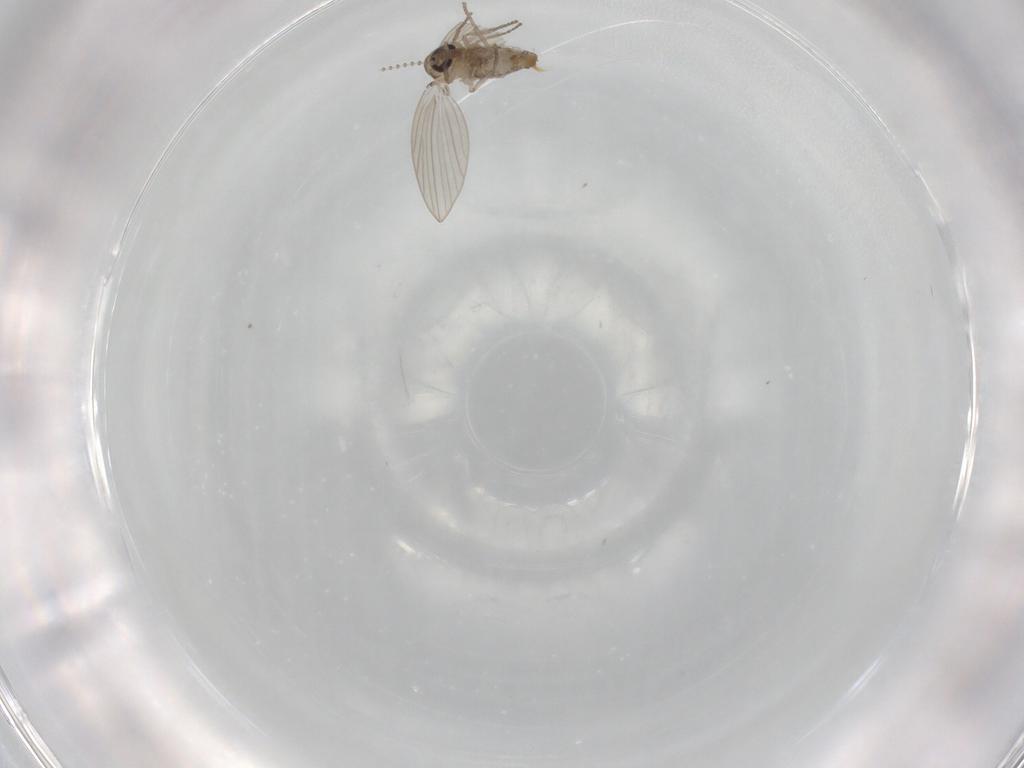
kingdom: Animalia
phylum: Arthropoda
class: Insecta
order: Diptera
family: Psychodidae
